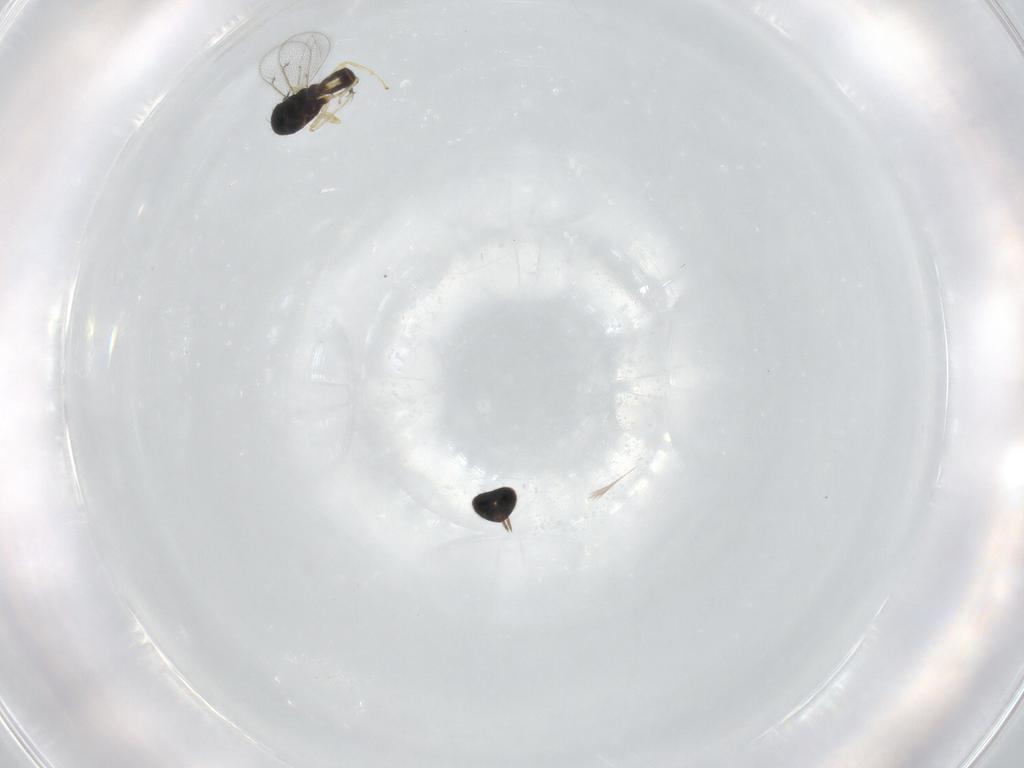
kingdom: Animalia
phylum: Arthropoda
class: Insecta
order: Hymenoptera
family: Eulophidae
